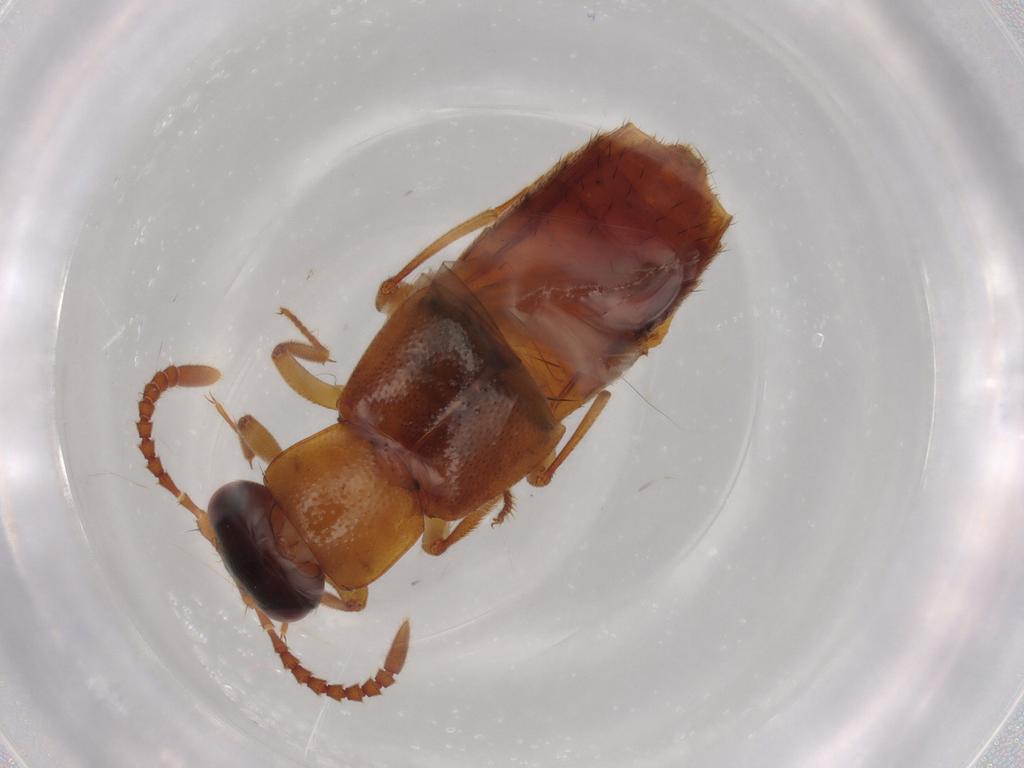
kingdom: Animalia
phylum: Arthropoda
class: Insecta
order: Coleoptera
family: Staphylinidae
